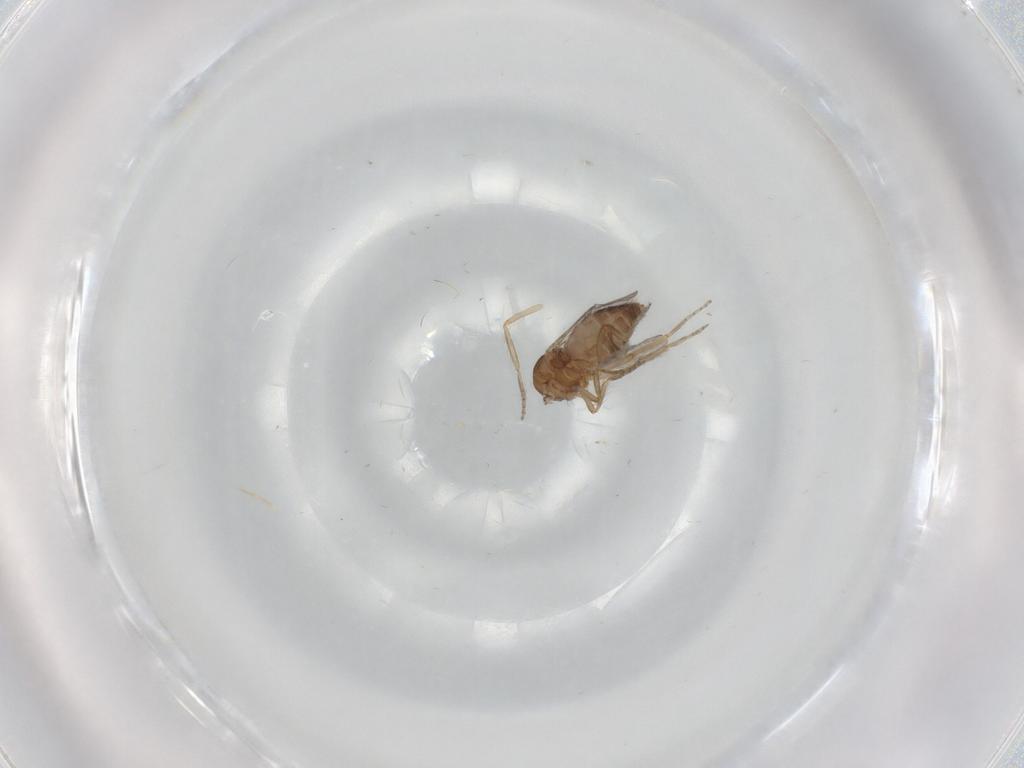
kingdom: Animalia
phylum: Arthropoda
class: Insecta
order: Diptera
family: Ceratopogonidae
